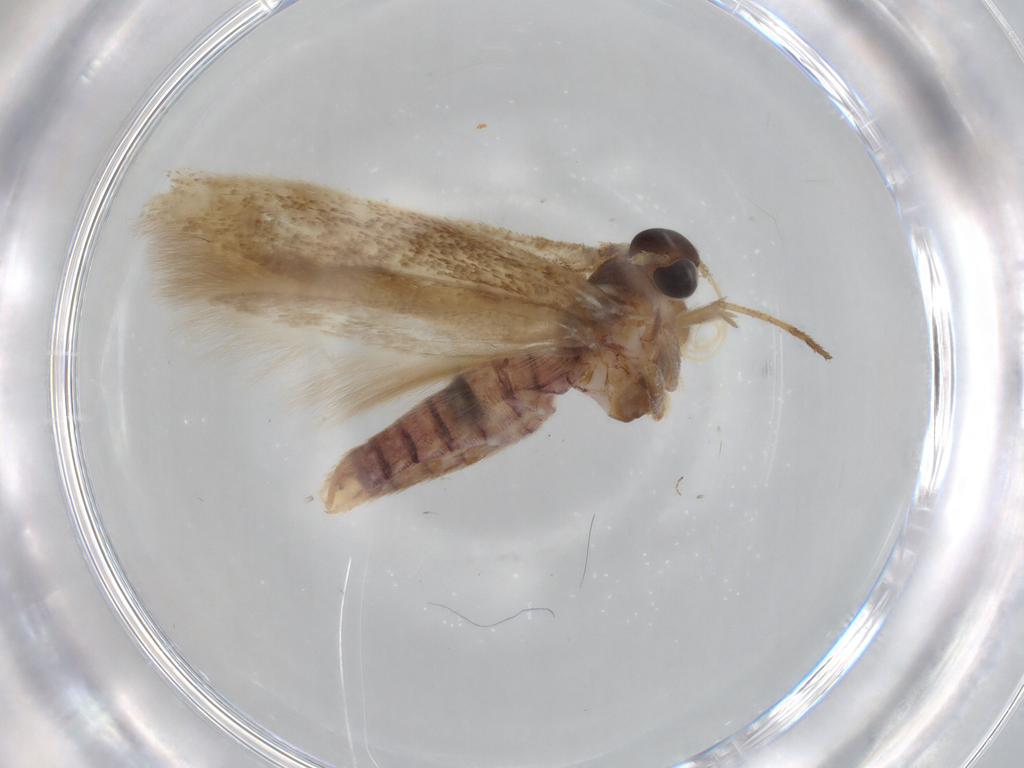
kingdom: Animalia
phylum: Arthropoda
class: Insecta
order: Lepidoptera
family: Scythrididae
